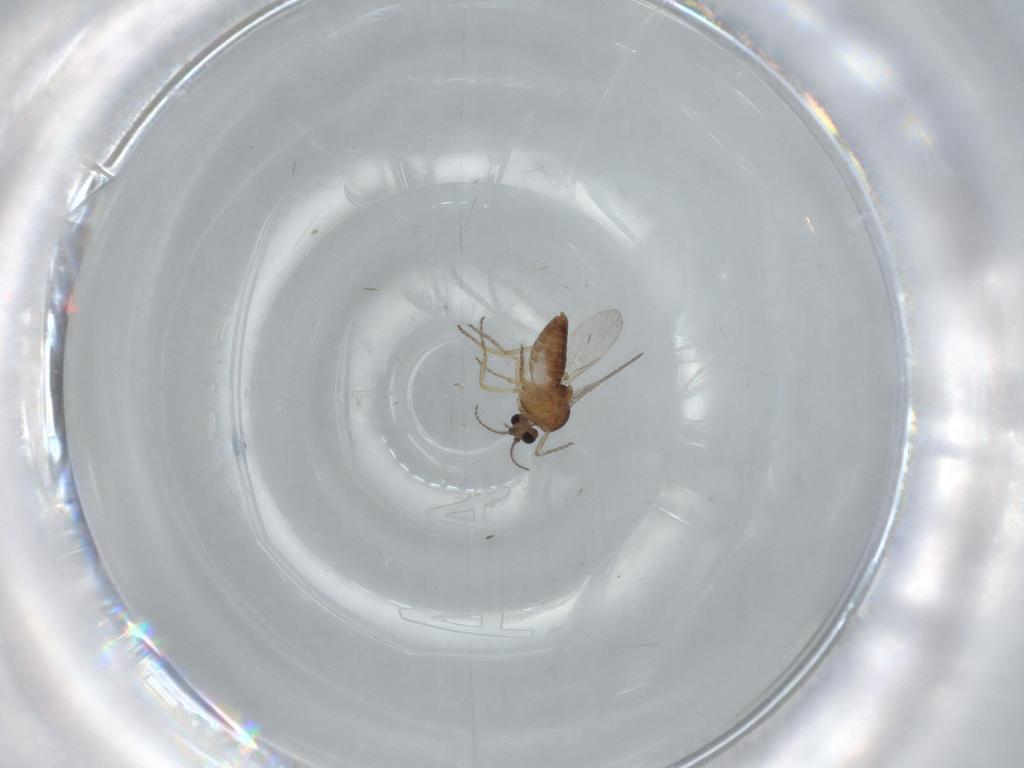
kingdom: Animalia
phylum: Arthropoda
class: Insecta
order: Diptera
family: Ceratopogonidae
